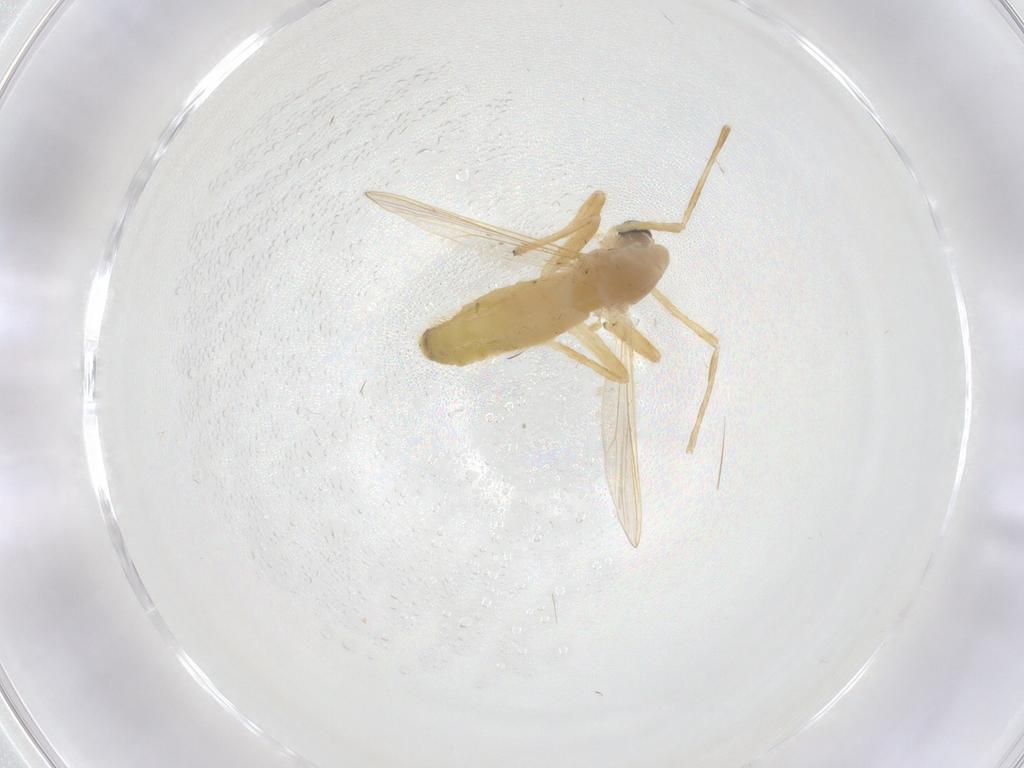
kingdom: Animalia
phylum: Arthropoda
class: Insecta
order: Diptera
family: Chironomidae
